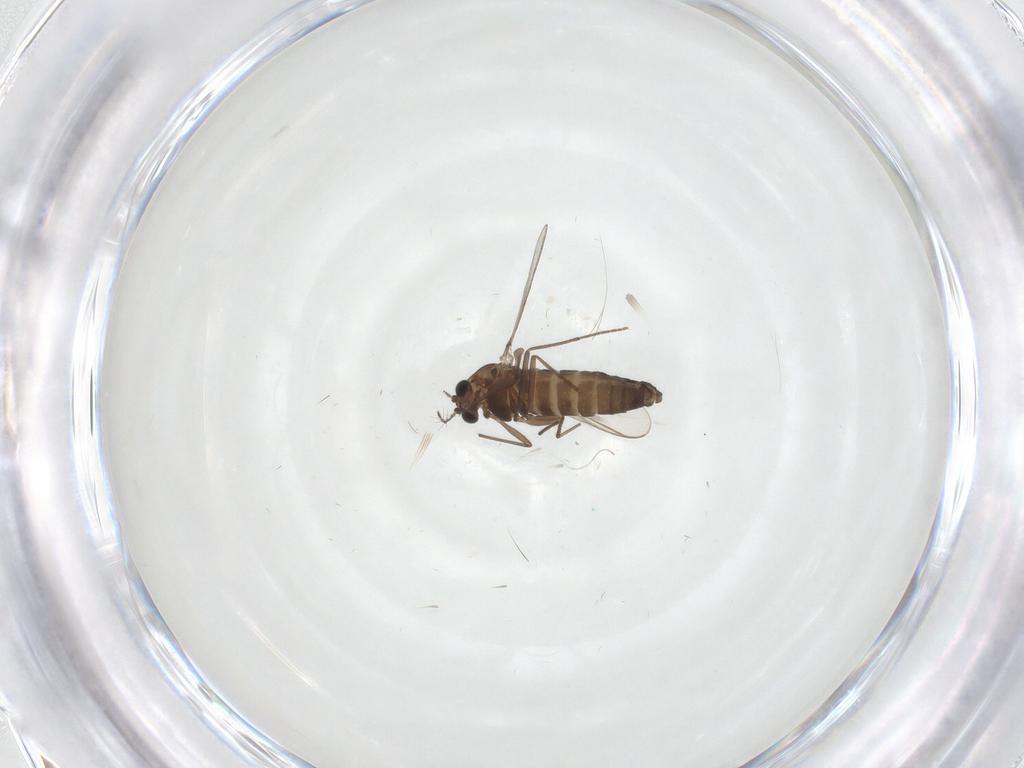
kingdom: Animalia
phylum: Arthropoda
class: Insecta
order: Diptera
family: Chironomidae
